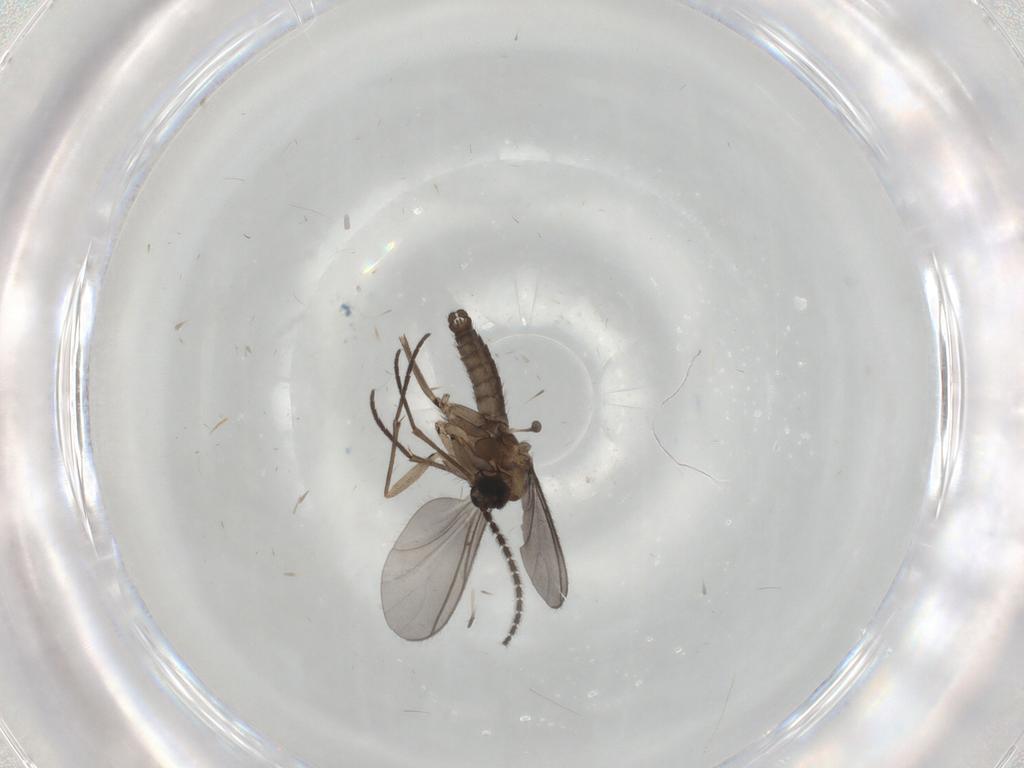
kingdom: Animalia
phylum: Arthropoda
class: Insecta
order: Diptera
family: Sciaridae
